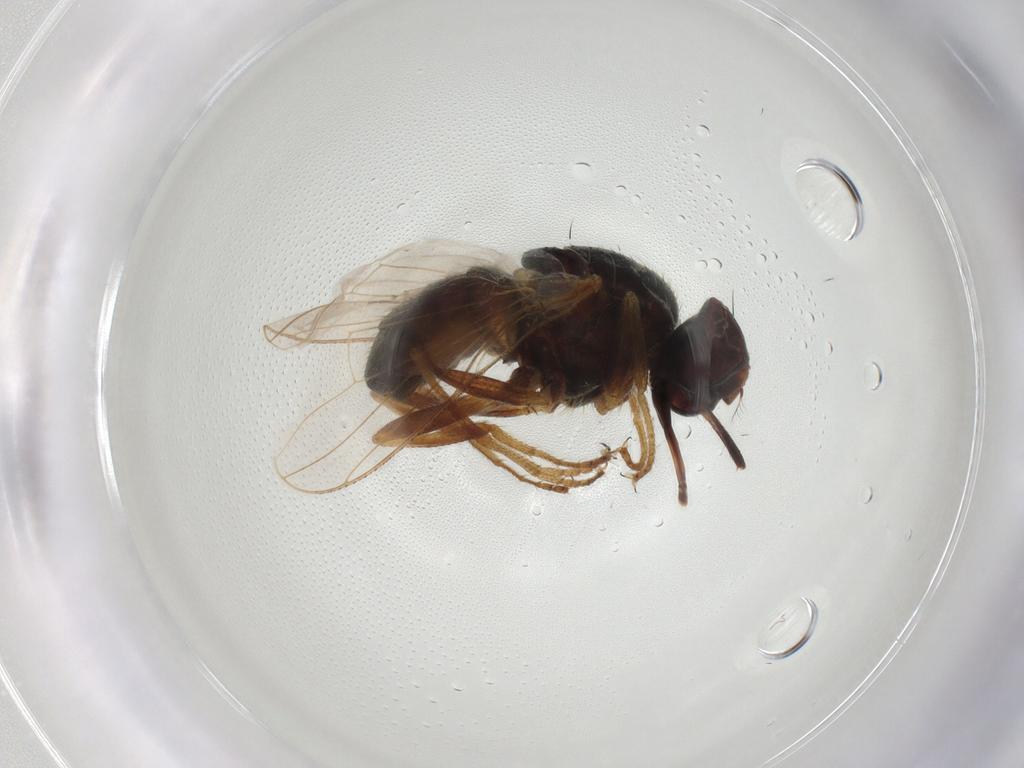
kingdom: Animalia
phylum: Arthropoda
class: Insecta
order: Diptera
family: Muscidae
